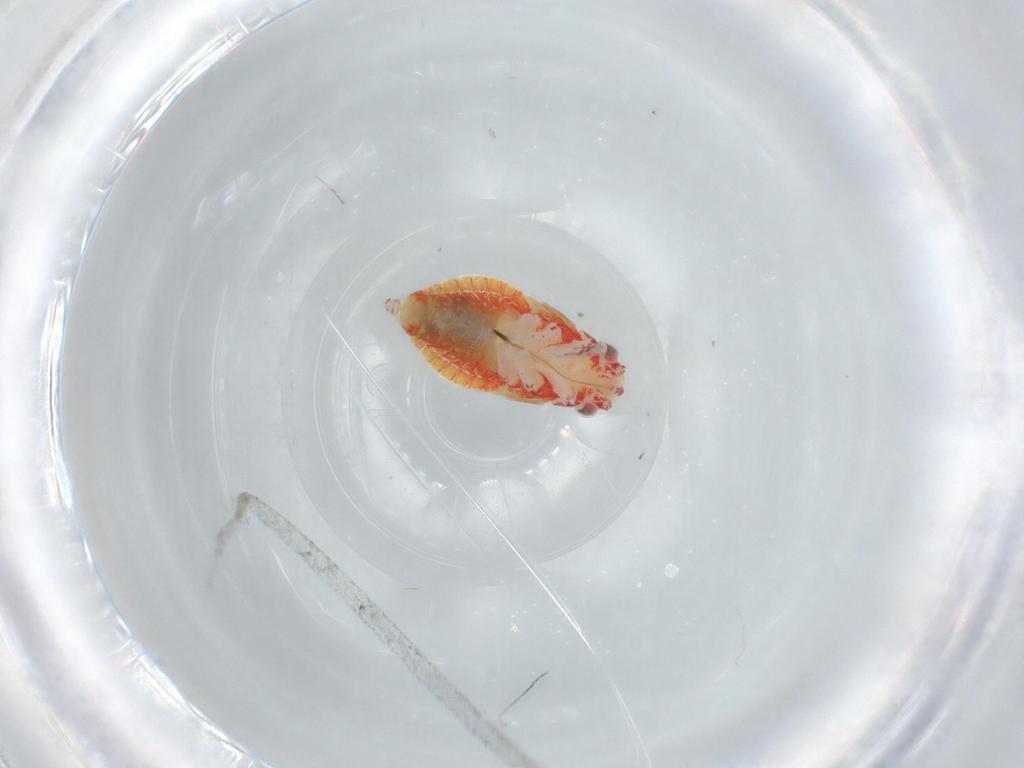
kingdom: Animalia
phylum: Arthropoda
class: Insecta
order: Hemiptera
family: Miridae
